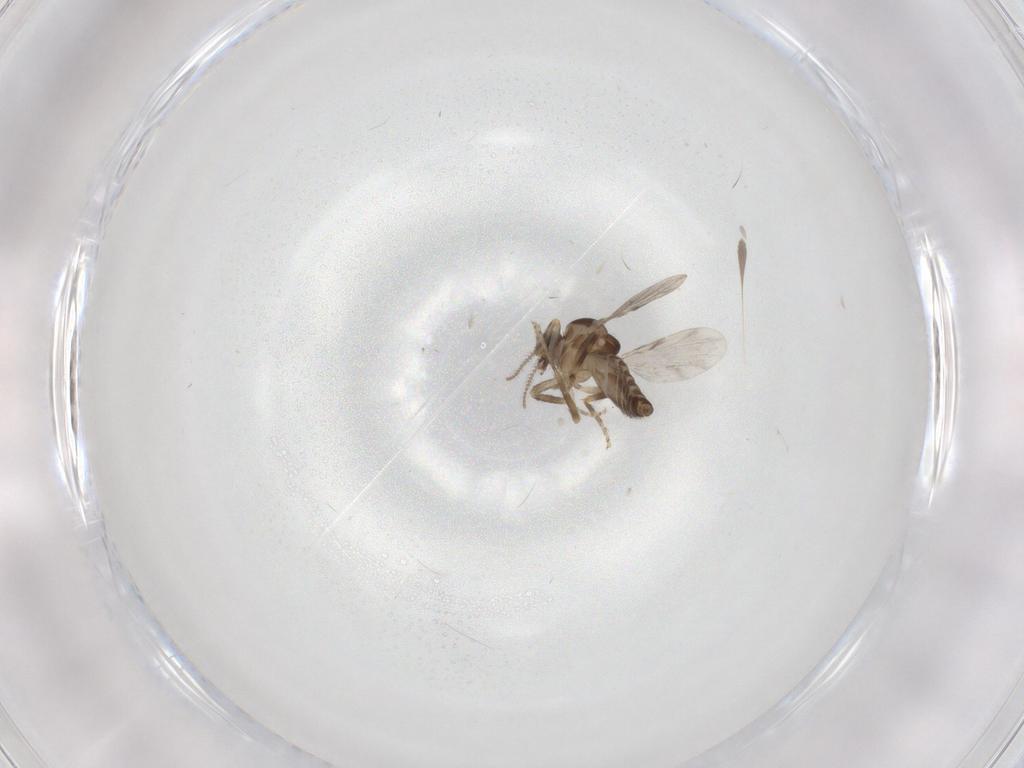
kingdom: Animalia
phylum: Arthropoda
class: Insecta
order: Diptera
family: Ceratopogonidae
